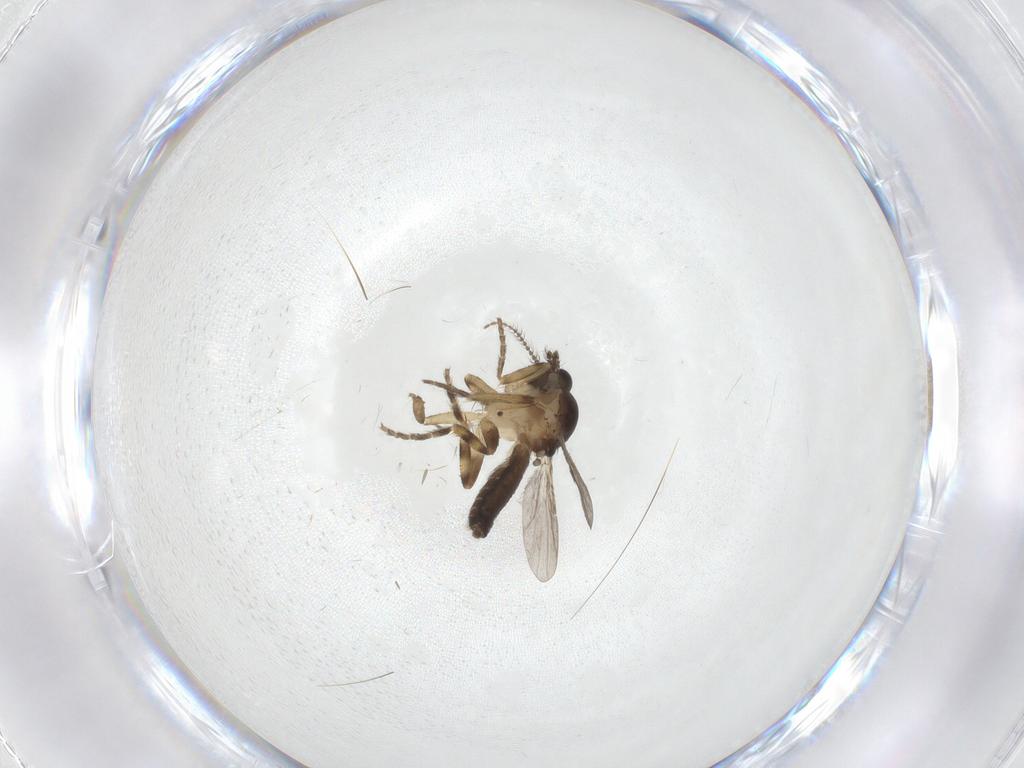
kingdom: Animalia
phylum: Arthropoda
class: Insecta
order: Diptera
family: Ceratopogonidae
